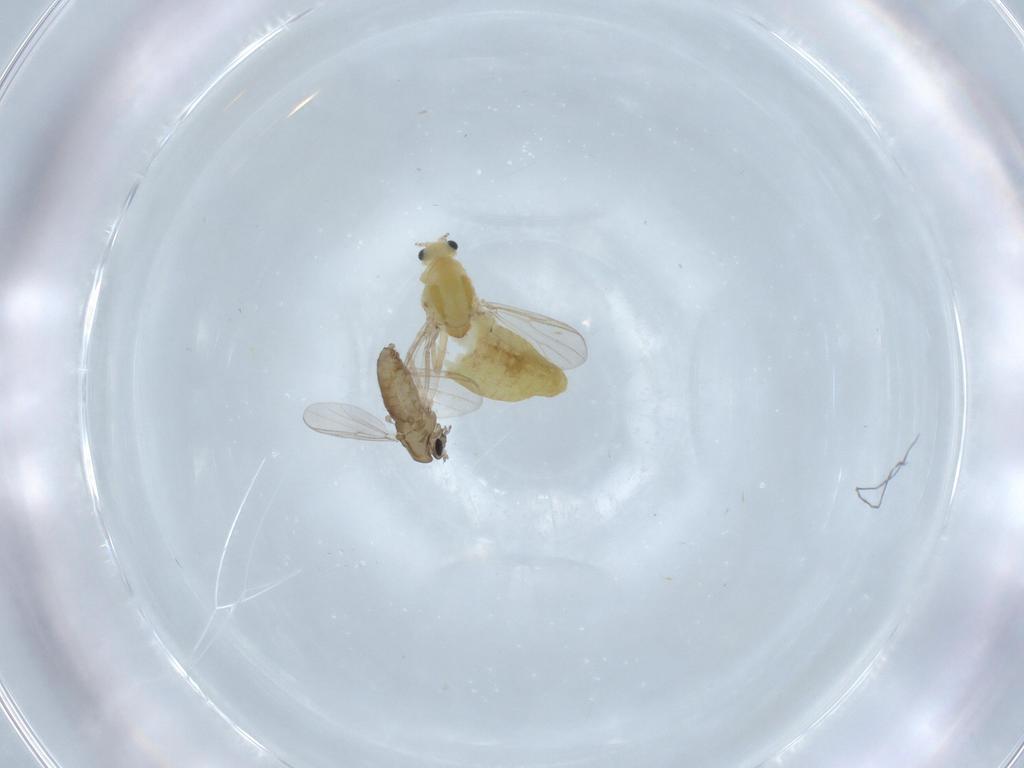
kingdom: Animalia
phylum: Arthropoda
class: Insecta
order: Diptera
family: Chironomidae
